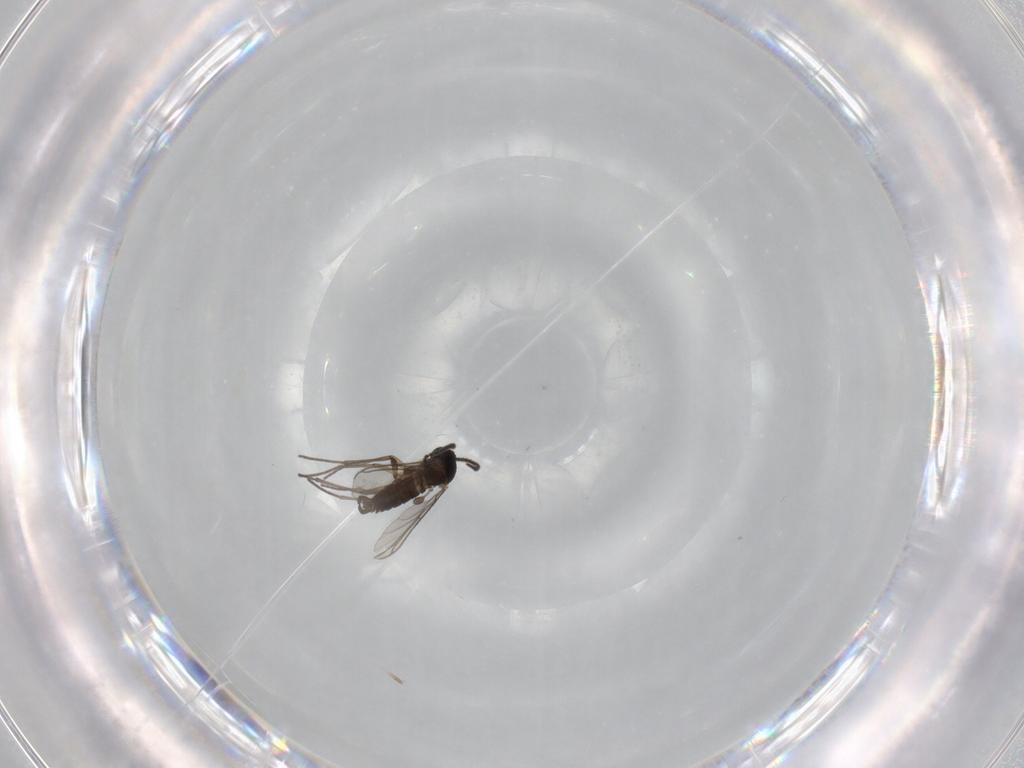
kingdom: Animalia
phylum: Arthropoda
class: Insecta
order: Diptera
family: Sciaridae
